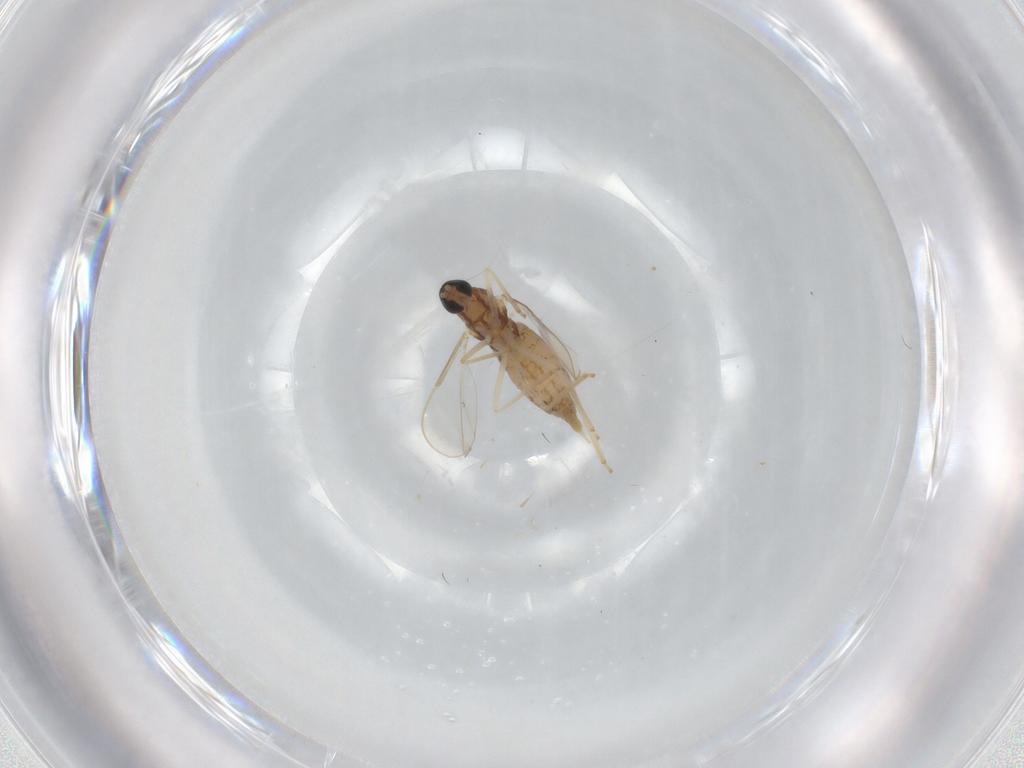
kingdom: Animalia
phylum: Arthropoda
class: Insecta
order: Diptera
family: Cecidomyiidae
